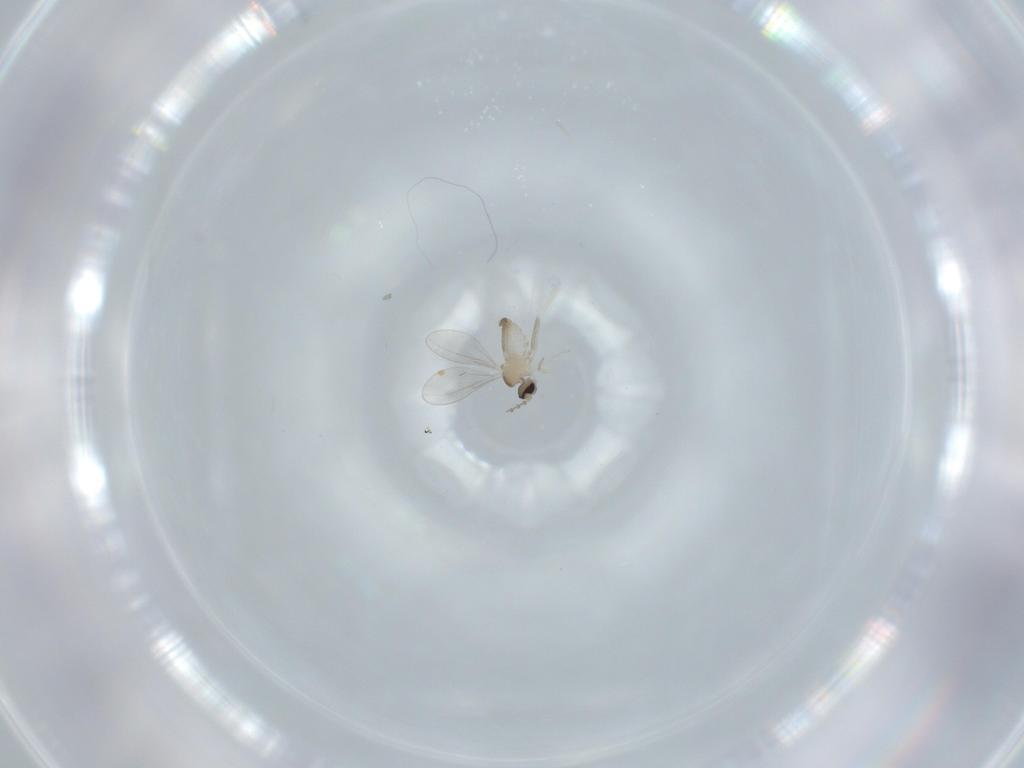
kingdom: Animalia
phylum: Arthropoda
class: Insecta
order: Diptera
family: Cecidomyiidae
